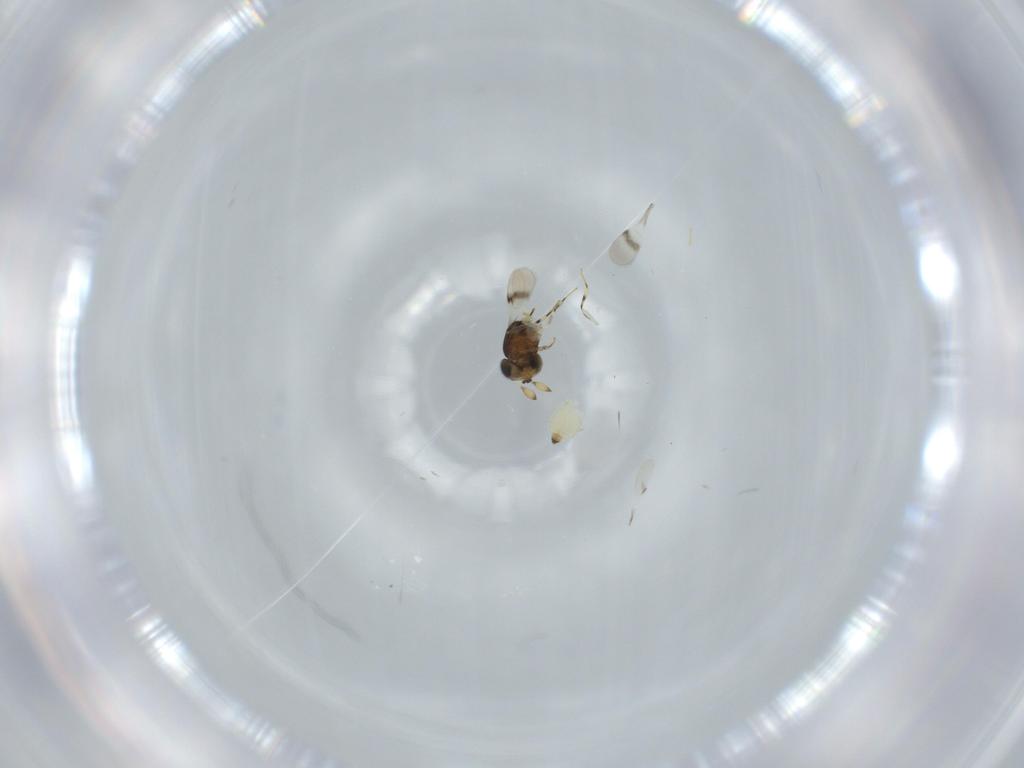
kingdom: Animalia
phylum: Arthropoda
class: Insecta
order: Hymenoptera
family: Scelionidae
